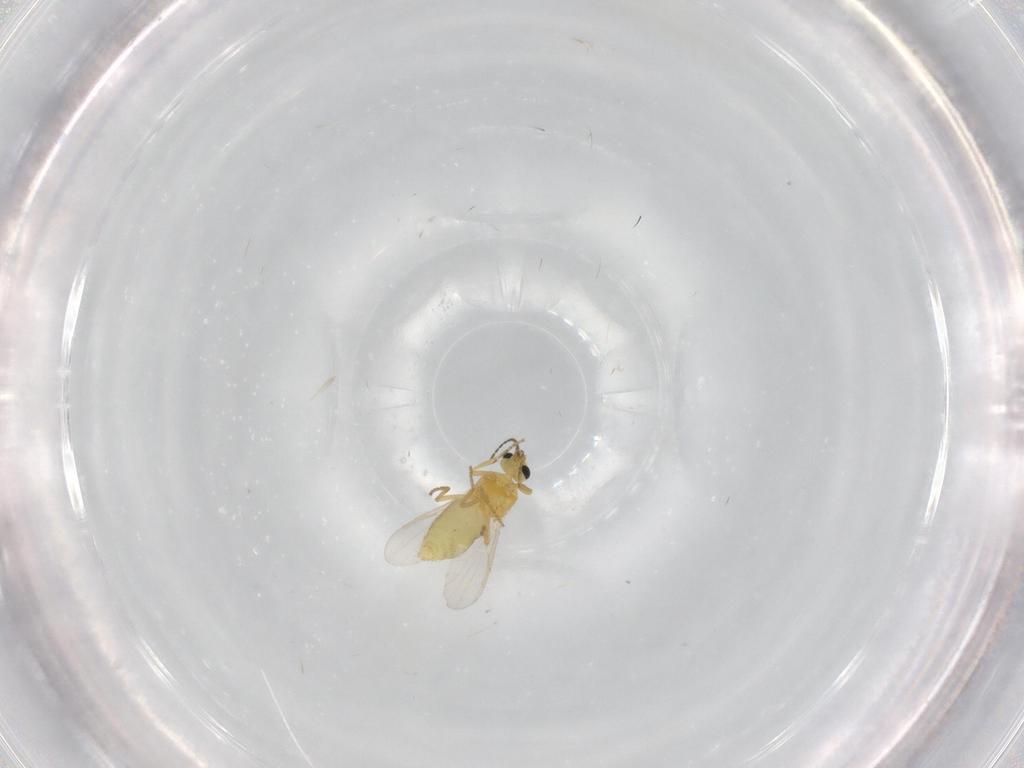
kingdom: Animalia
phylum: Arthropoda
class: Insecta
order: Diptera
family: Ceratopogonidae
